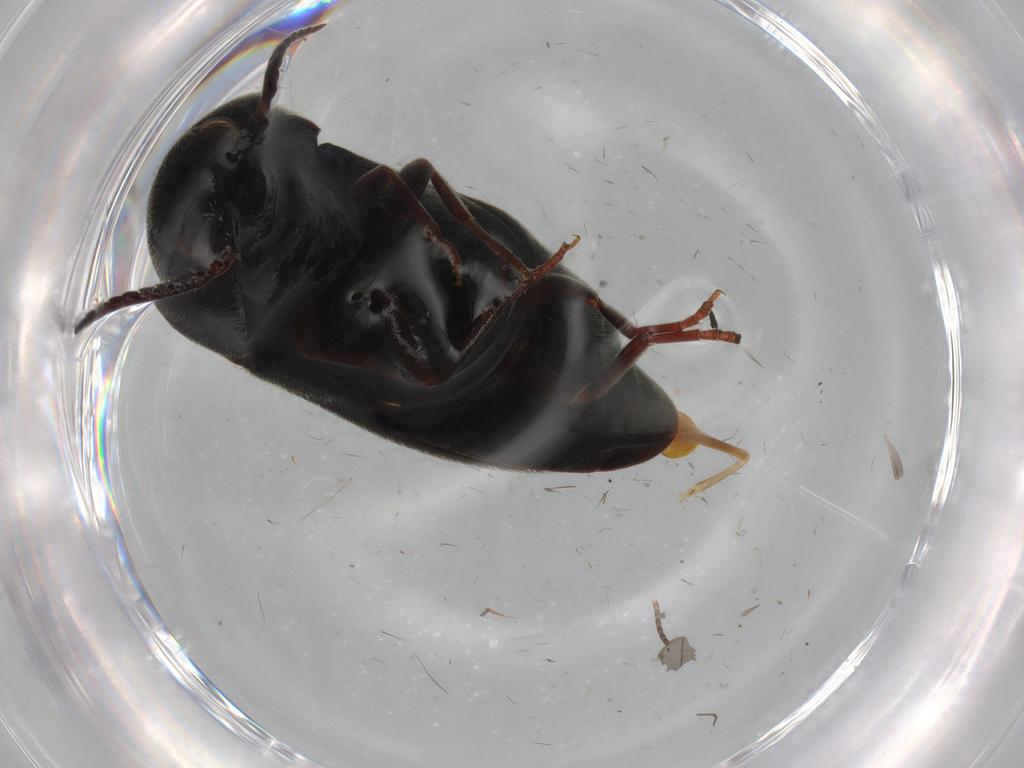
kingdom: Animalia
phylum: Arthropoda
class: Insecta
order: Coleoptera
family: Eucnemidae
